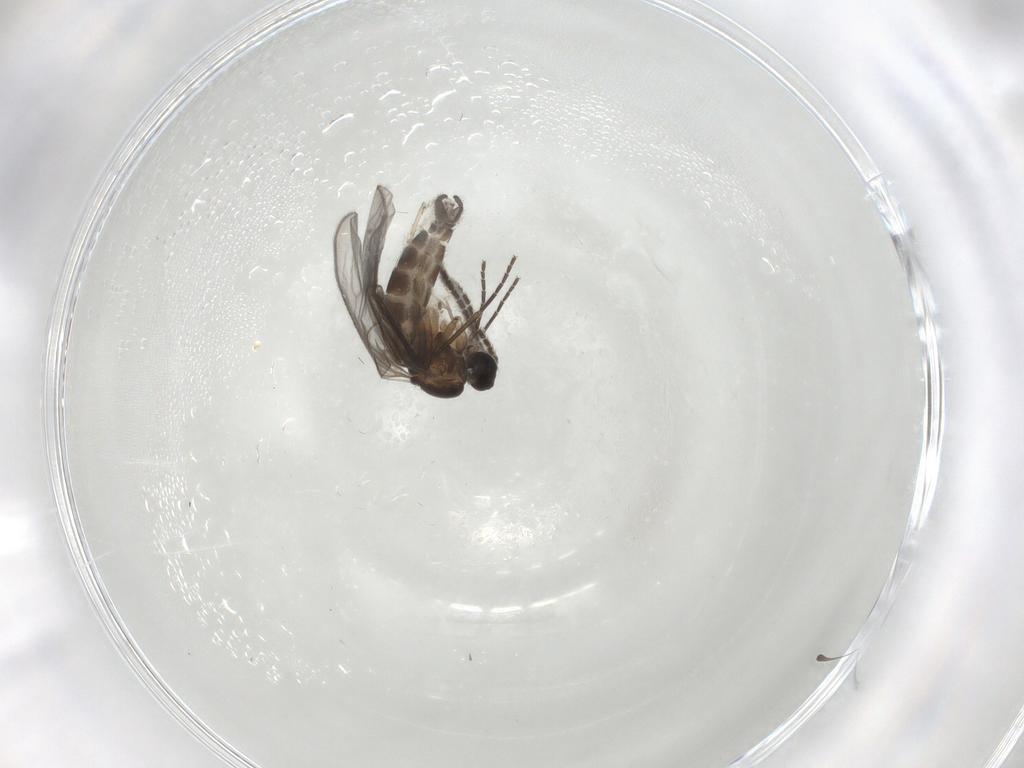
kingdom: Animalia
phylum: Arthropoda
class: Insecta
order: Diptera
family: Sciaridae
